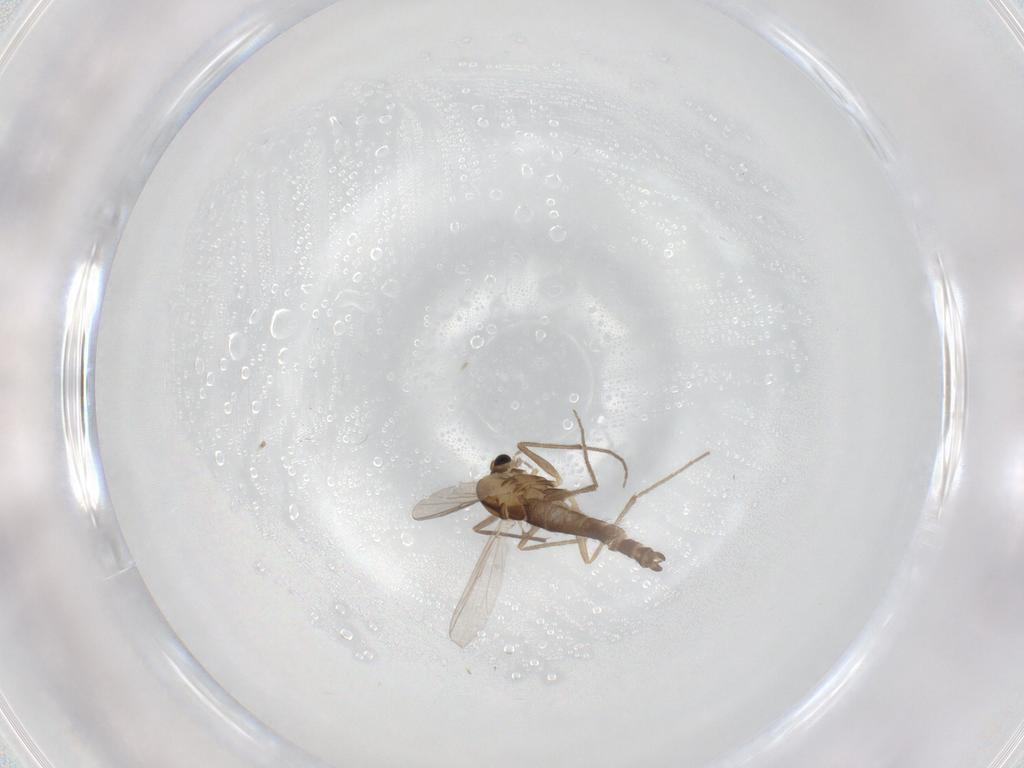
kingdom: Animalia
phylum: Arthropoda
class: Insecta
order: Diptera
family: Chironomidae
